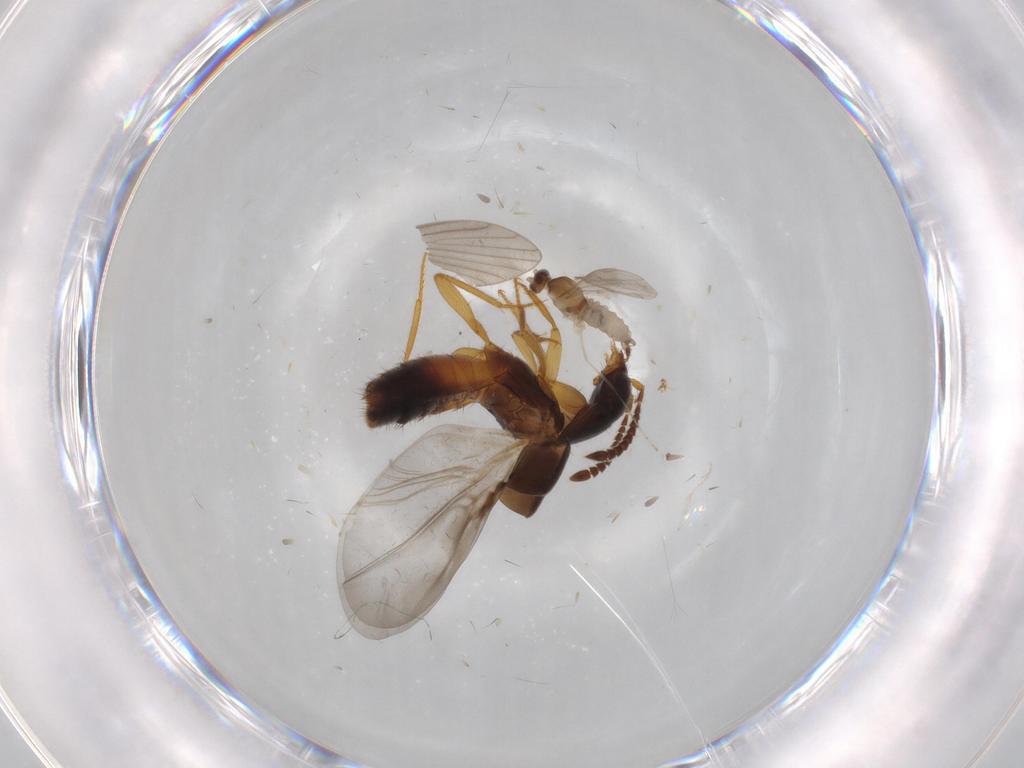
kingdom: Animalia
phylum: Arthropoda
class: Insecta
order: Coleoptera
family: Staphylinidae
